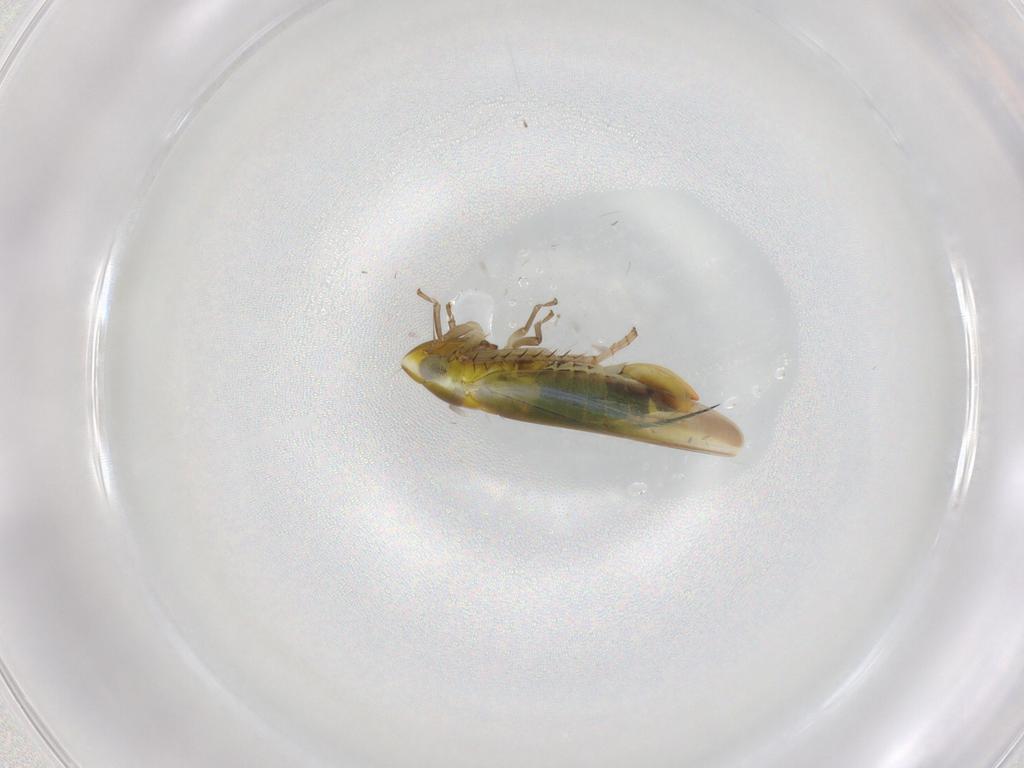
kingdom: Animalia
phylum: Arthropoda
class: Insecta
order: Hemiptera
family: Cicadellidae
